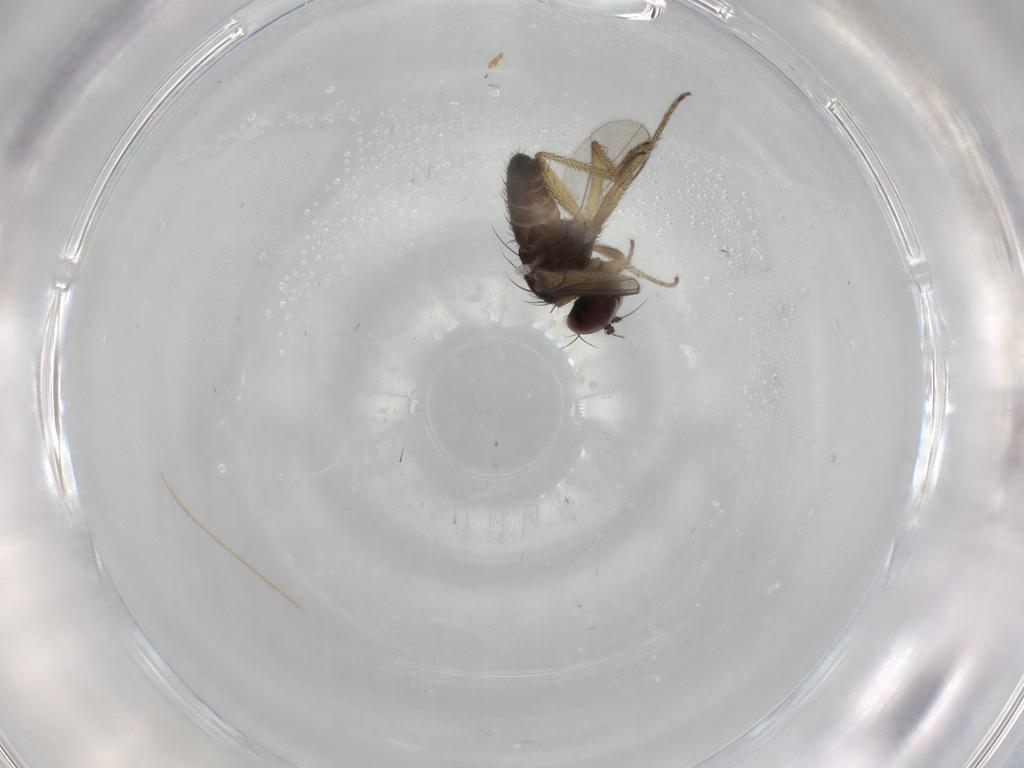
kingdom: Animalia
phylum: Arthropoda
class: Insecta
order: Diptera
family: Dolichopodidae
